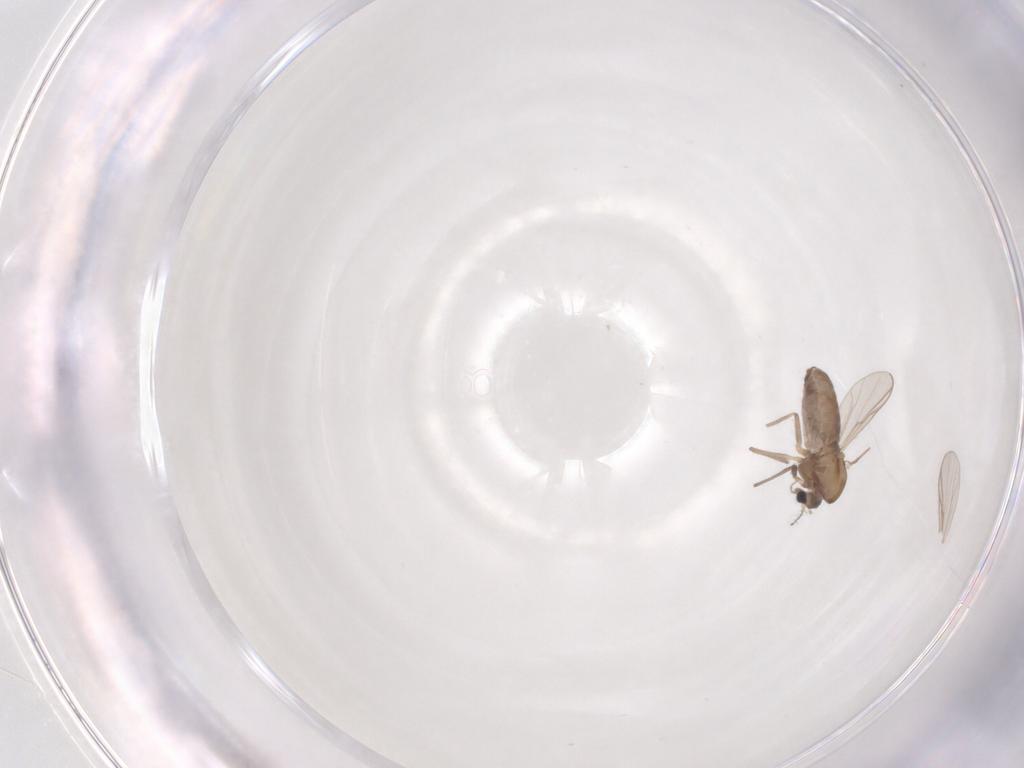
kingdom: Animalia
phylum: Arthropoda
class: Insecta
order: Diptera
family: Chironomidae
